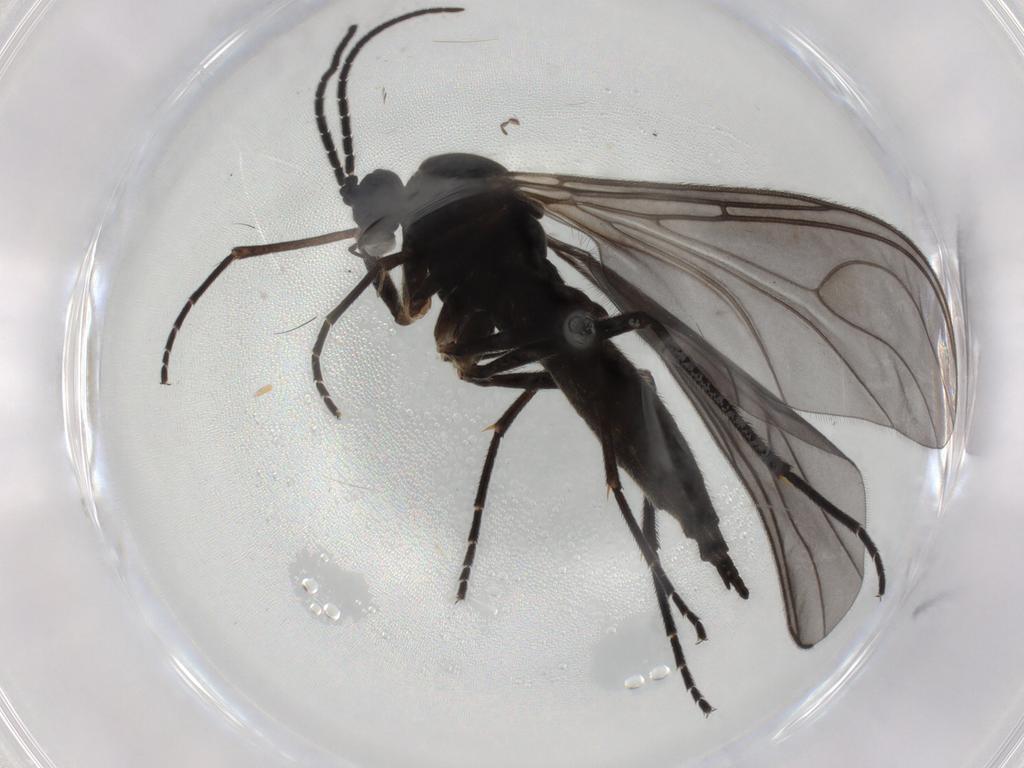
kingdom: Animalia
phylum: Arthropoda
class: Insecta
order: Diptera
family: Sciaridae
